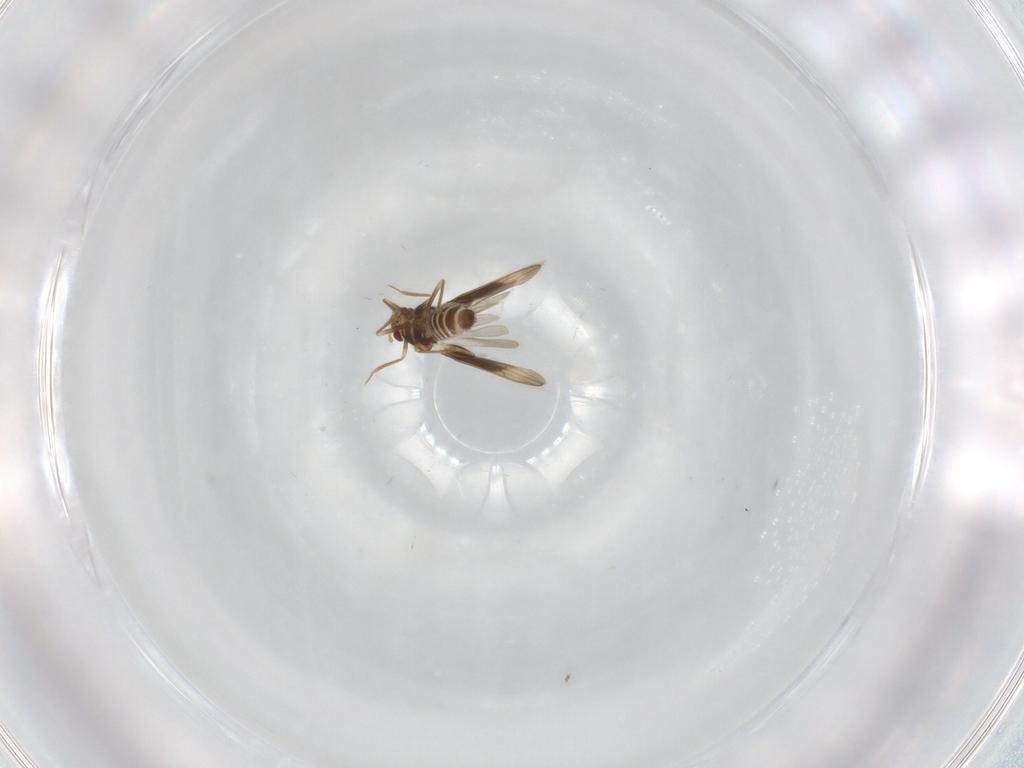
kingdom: Animalia
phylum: Arthropoda
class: Insecta
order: Hemiptera
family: Schizopteridae
